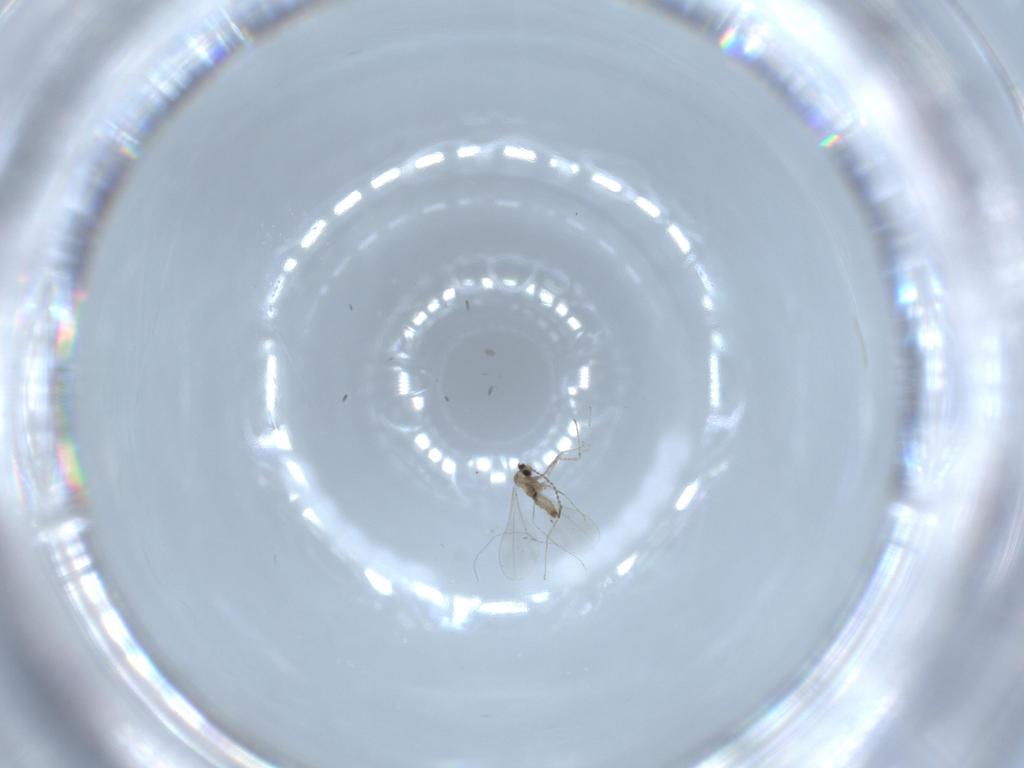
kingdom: Animalia
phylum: Arthropoda
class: Insecta
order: Diptera
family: Cecidomyiidae
